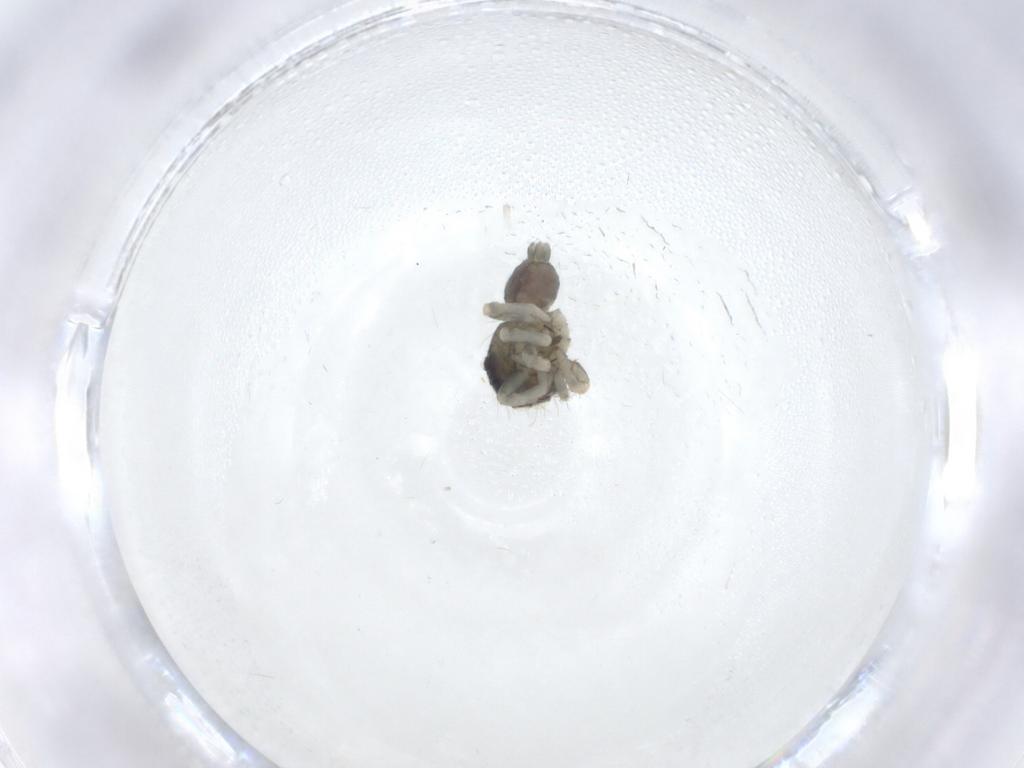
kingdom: Animalia
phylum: Arthropoda
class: Arachnida
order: Araneae
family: Salticidae
